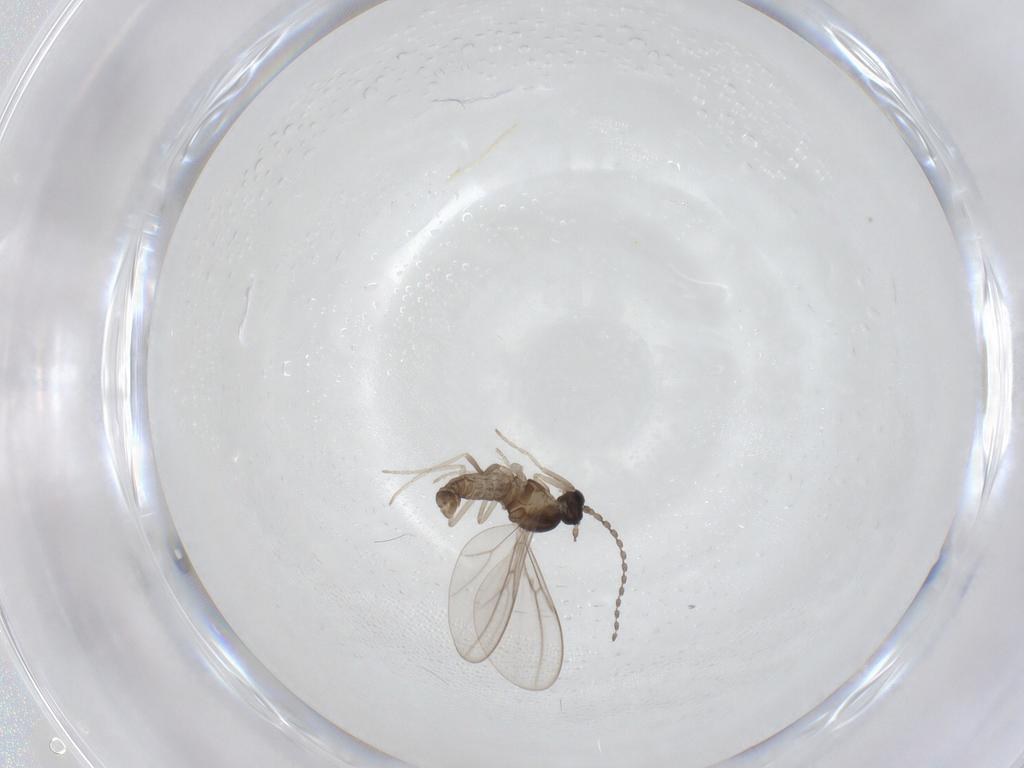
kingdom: Animalia
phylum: Arthropoda
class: Insecta
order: Diptera
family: Cecidomyiidae
